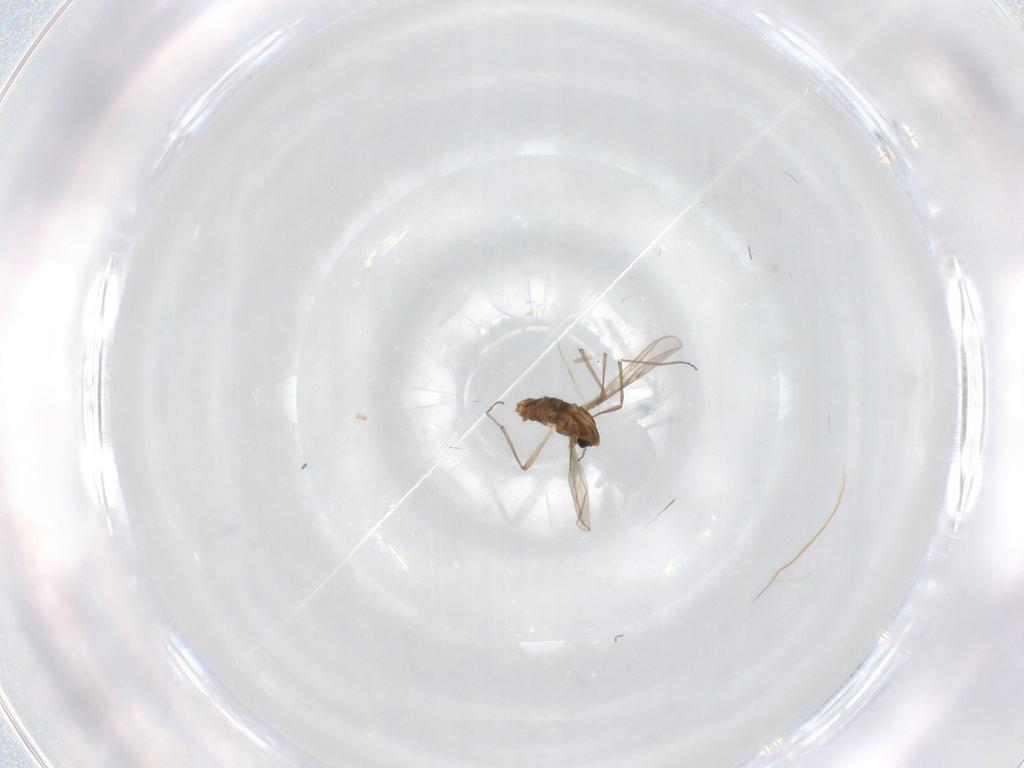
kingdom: Animalia
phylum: Arthropoda
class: Insecta
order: Diptera
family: Chironomidae
